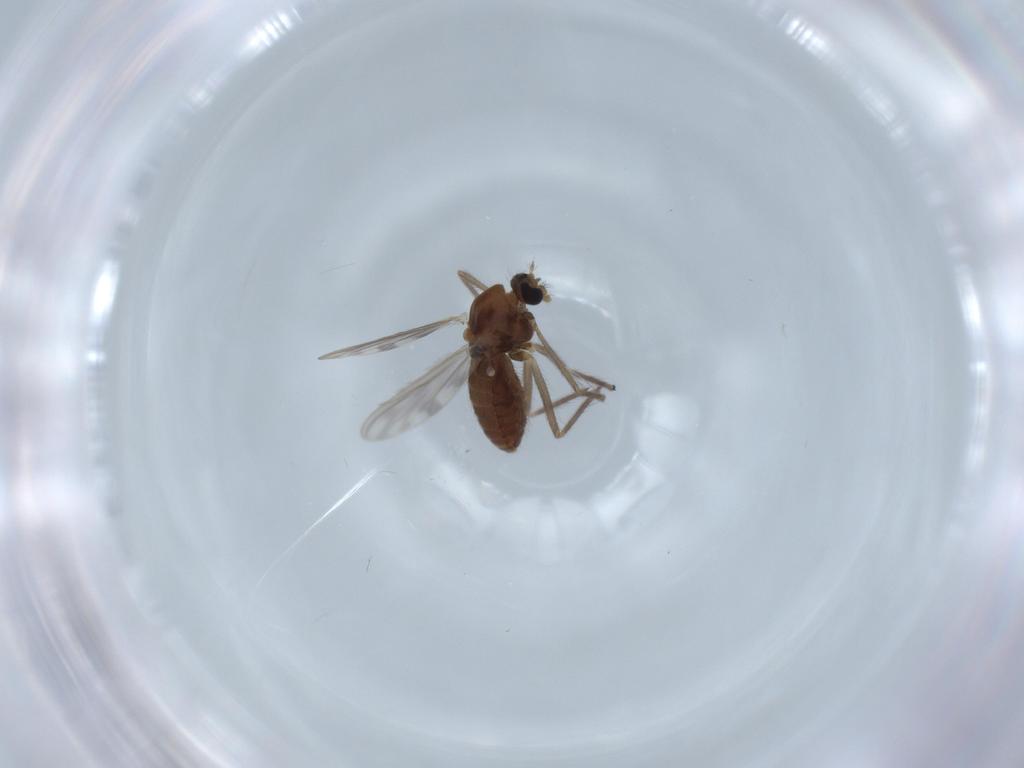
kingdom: Animalia
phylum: Arthropoda
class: Insecta
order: Diptera
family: Chironomidae
